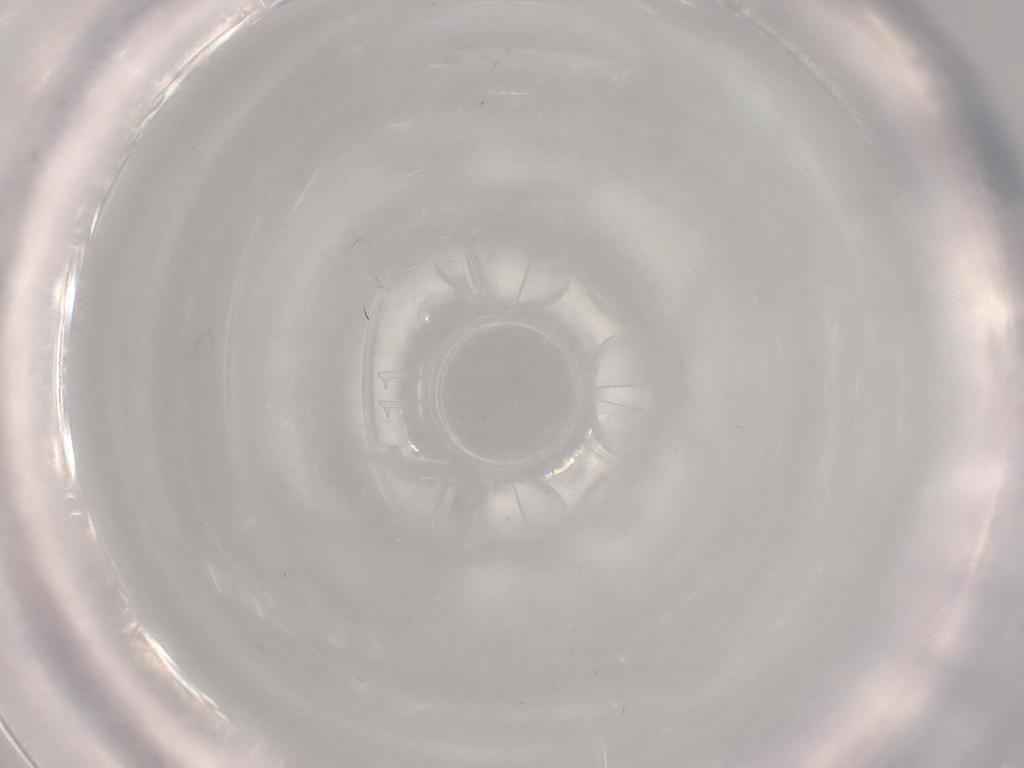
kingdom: Animalia
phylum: Arthropoda
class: Insecta
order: Diptera
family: Cecidomyiidae
